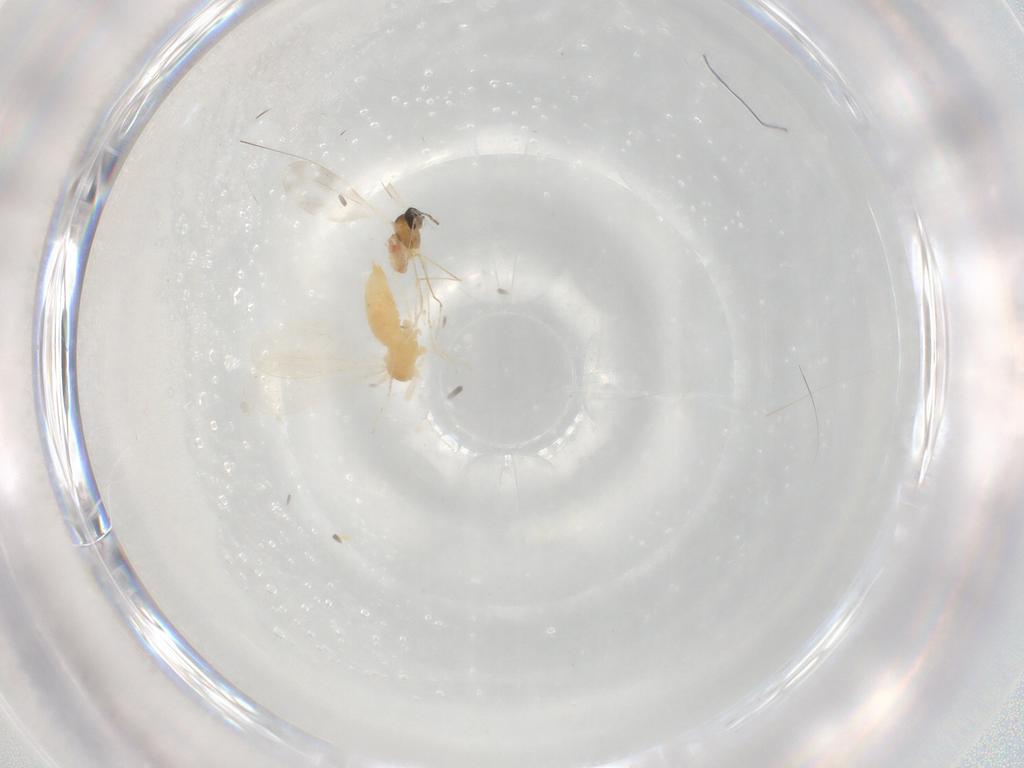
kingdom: Animalia
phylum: Arthropoda
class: Insecta
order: Diptera
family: Cecidomyiidae
